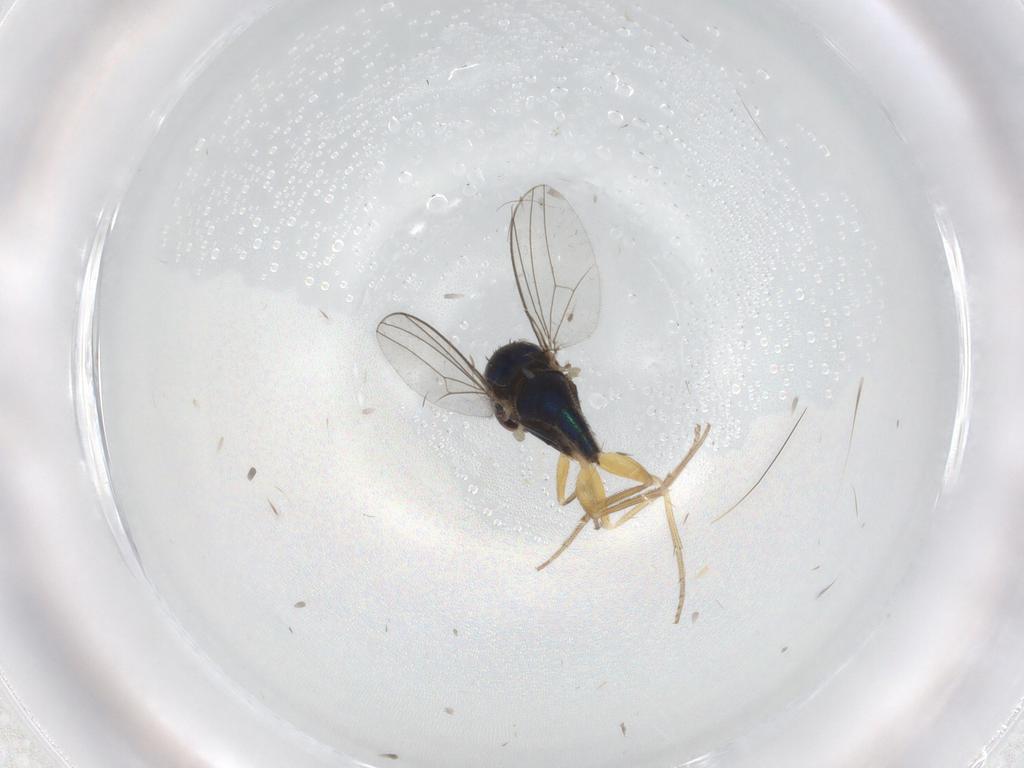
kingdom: Animalia
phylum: Arthropoda
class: Insecta
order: Diptera
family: Dolichopodidae
